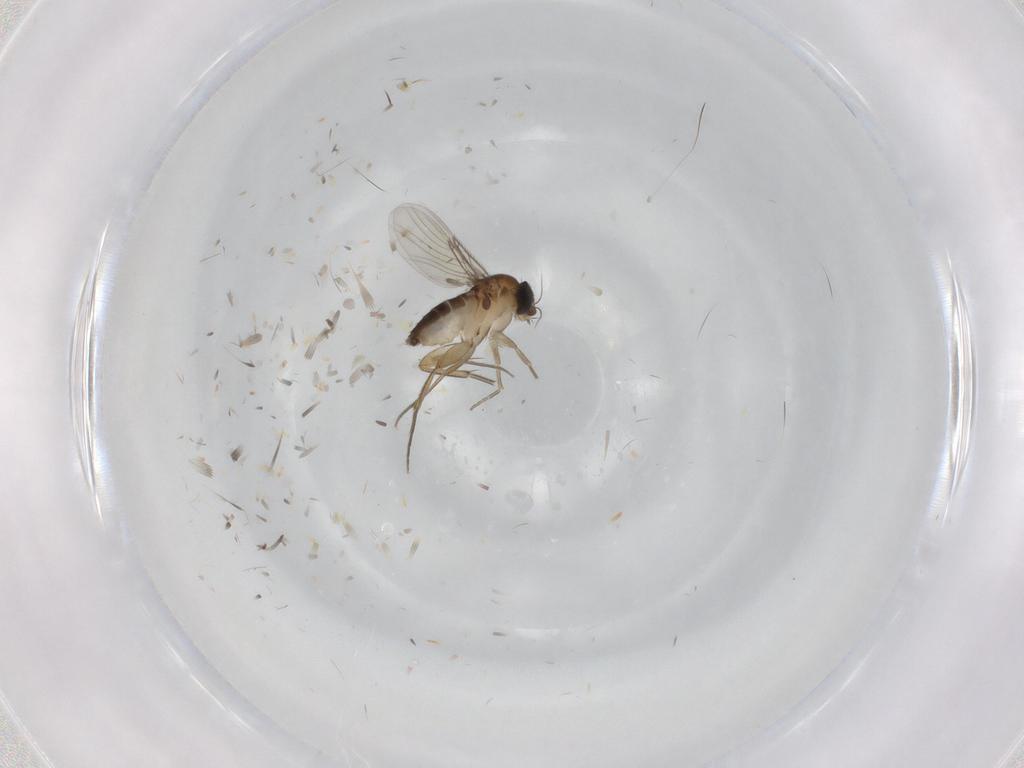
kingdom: Animalia
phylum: Arthropoda
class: Insecta
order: Diptera
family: Phoridae
